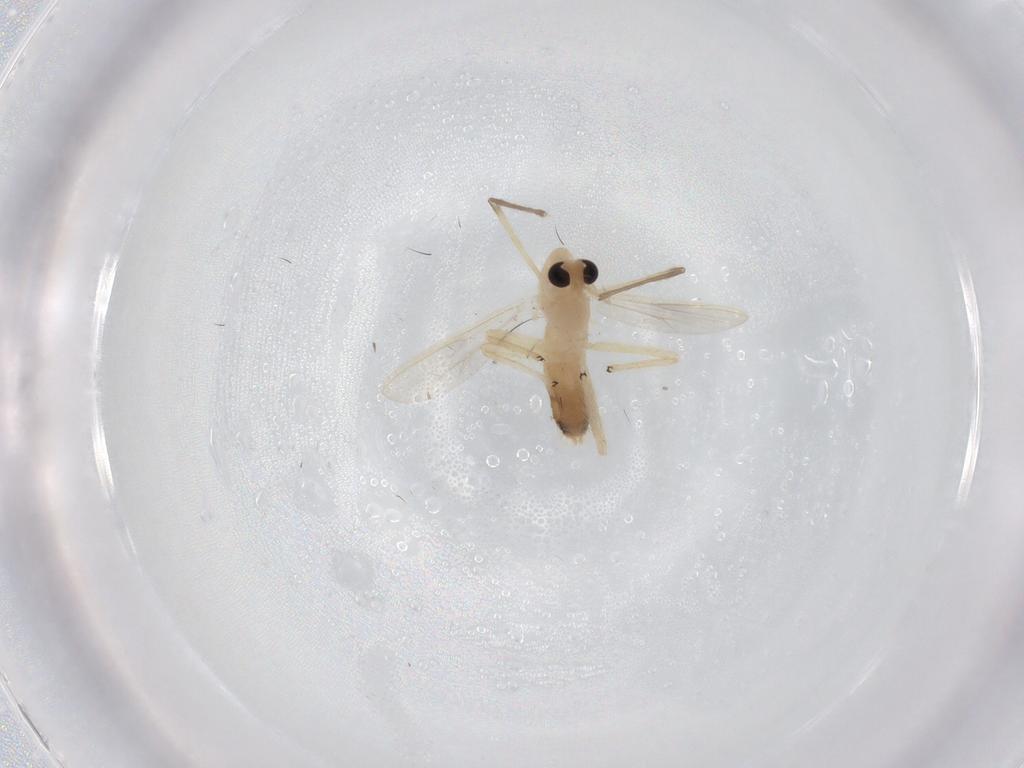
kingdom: Animalia
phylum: Arthropoda
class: Insecta
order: Diptera
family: Chironomidae
